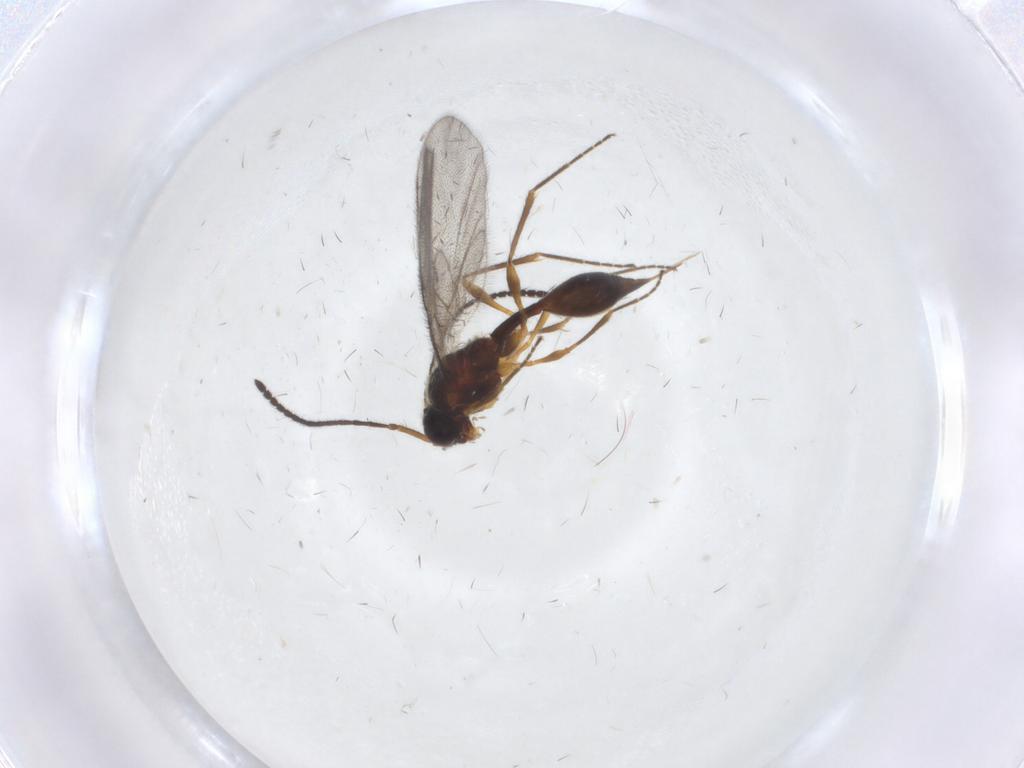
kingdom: Animalia
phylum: Arthropoda
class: Insecta
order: Hymenoptera
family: Diapriidae
